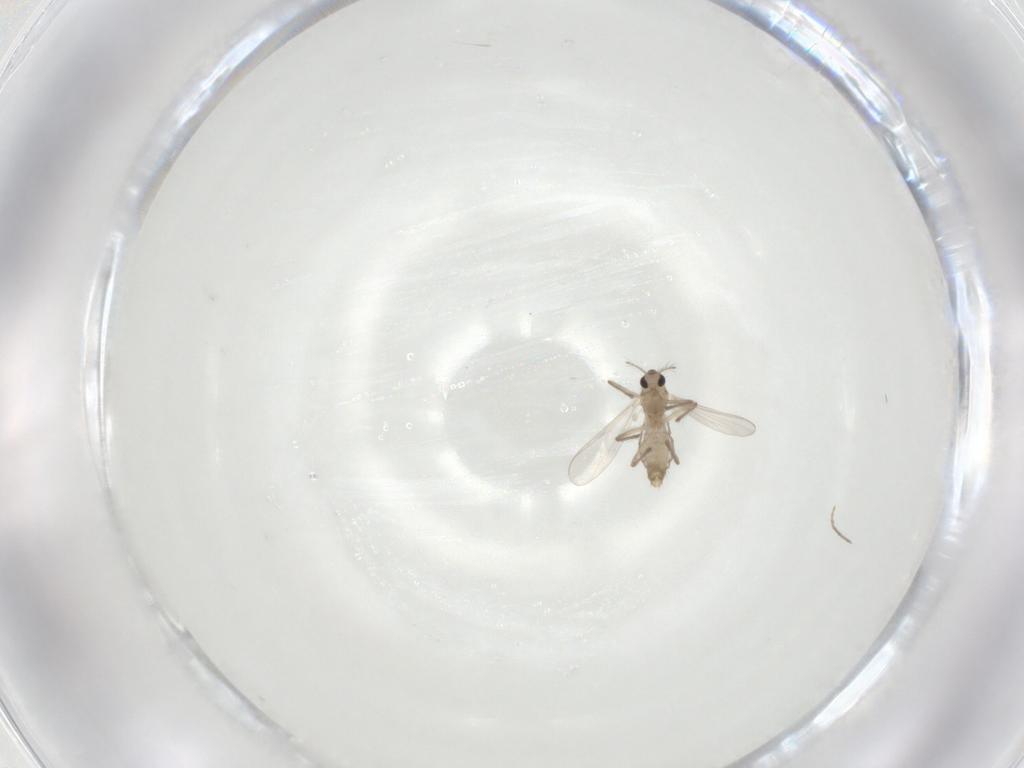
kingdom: Animalia
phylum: Arthropoda
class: Insecta
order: Diptera
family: Chironomidae
